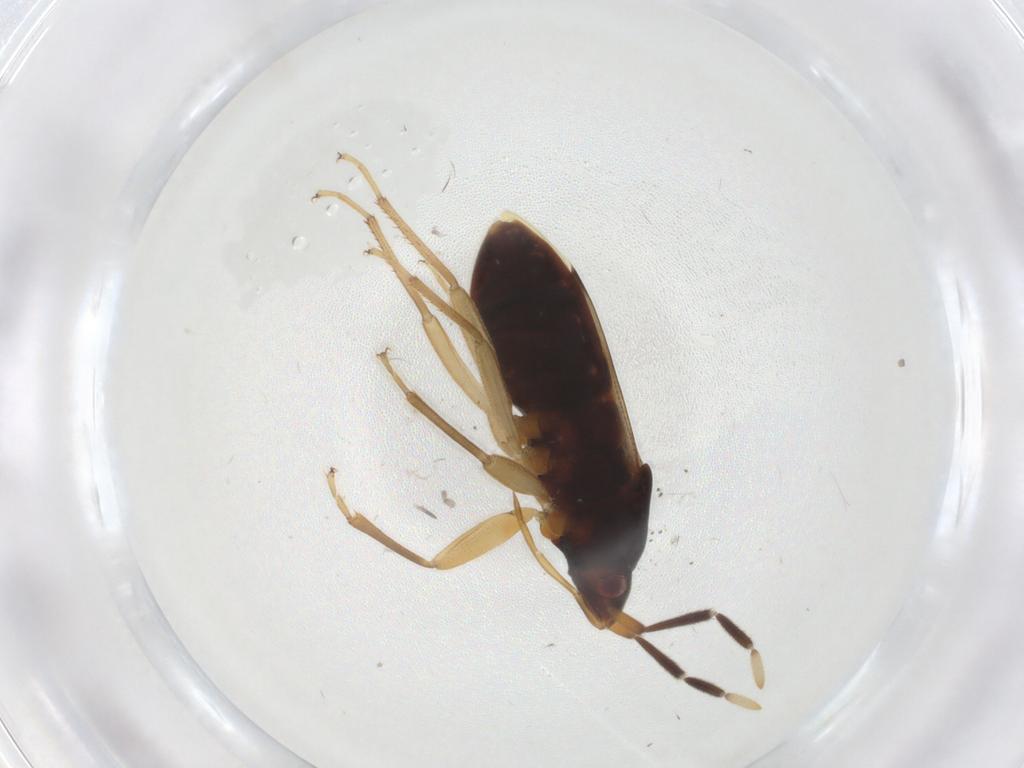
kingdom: Animalia
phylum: Arthropoda
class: Insecta
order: Hemiptera
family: Rhyparochromidae
